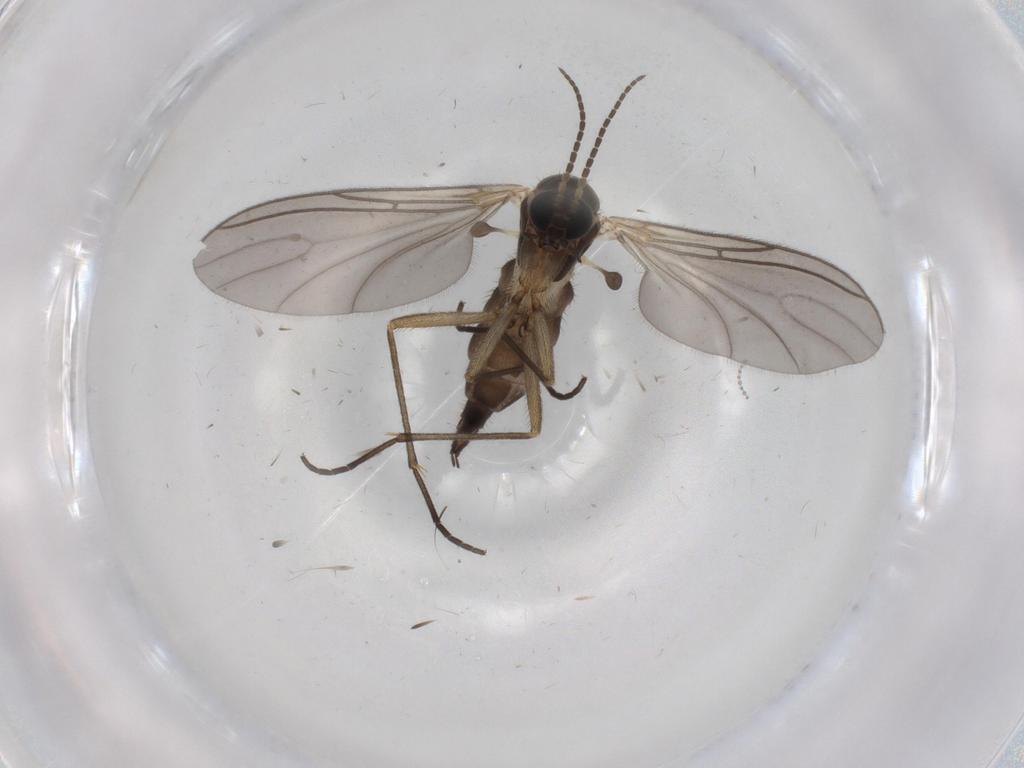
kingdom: Animalia
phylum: Arthropoda
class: Insecta
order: Diptera
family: Sciaridae
